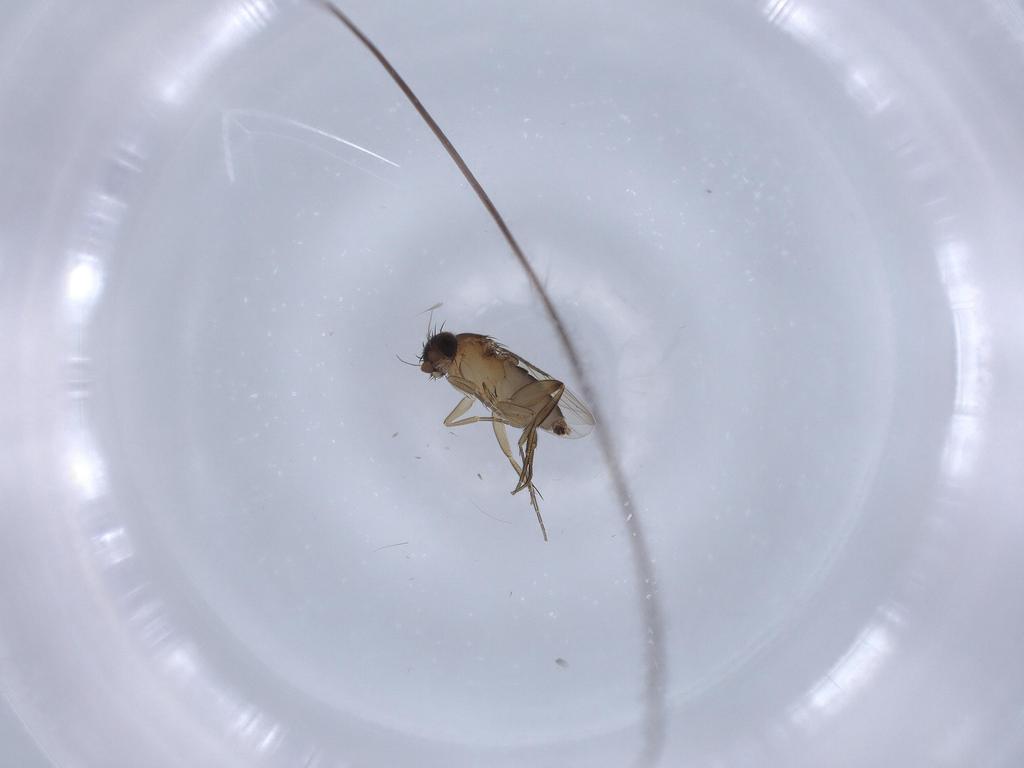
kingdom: Animalia
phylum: Arthropoda
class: Insecta
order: Diptera
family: Phoridae
